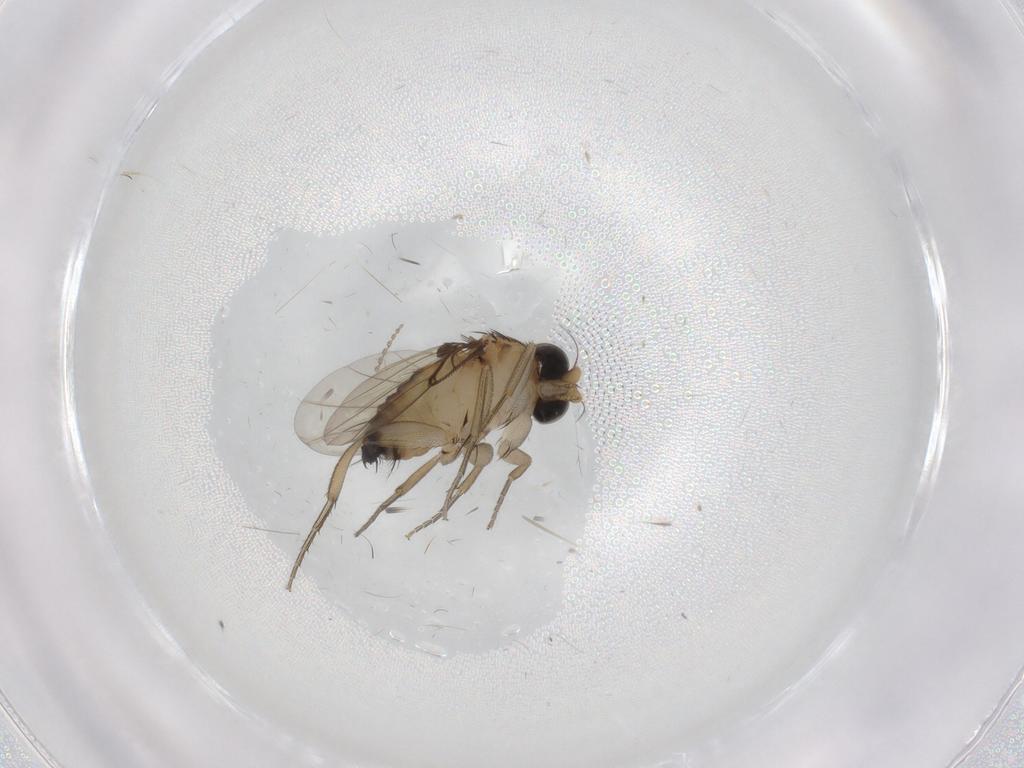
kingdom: Animalia
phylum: Arthropoda
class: Insecta
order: Diptera
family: Phoridae
